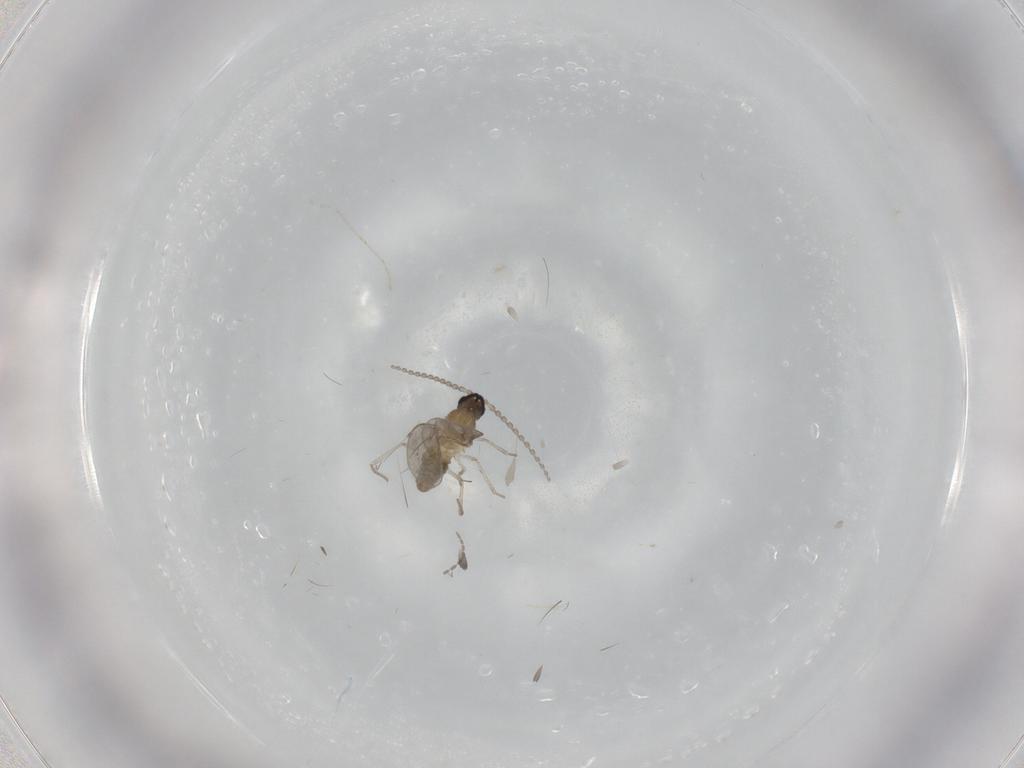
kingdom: Animalia
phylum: Arthropoda
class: Insecta
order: Diptera
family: Cecidomyiidae
